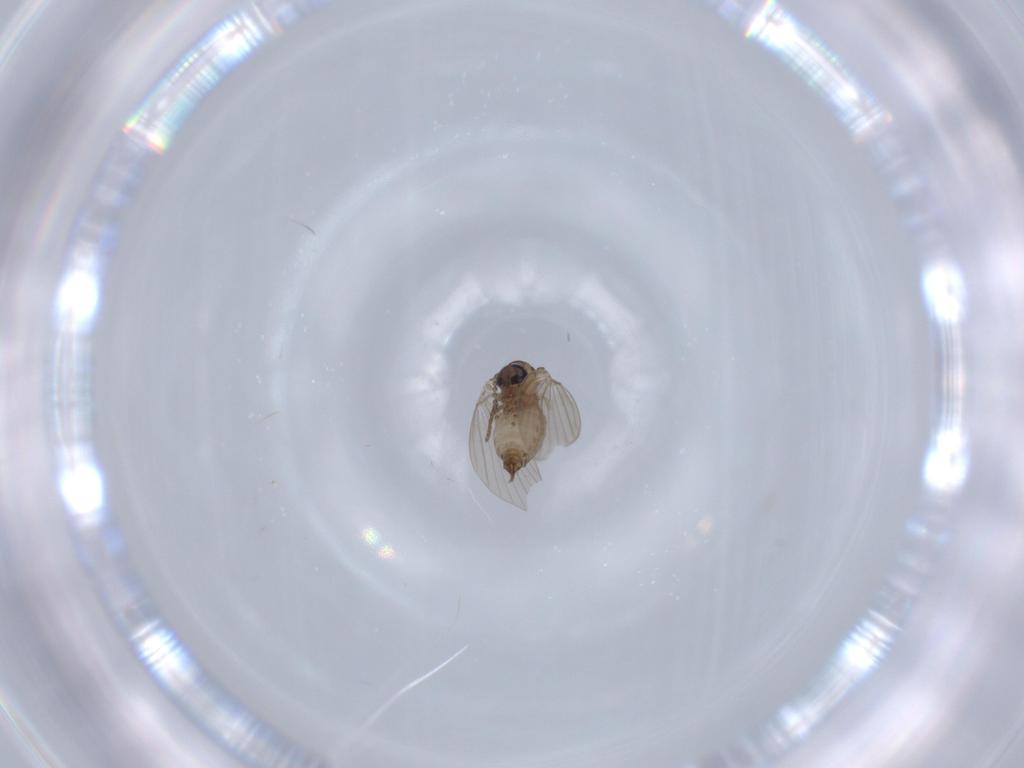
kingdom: Animalia
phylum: Arthropoda
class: Insecta
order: Diptera
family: Psychodidae
